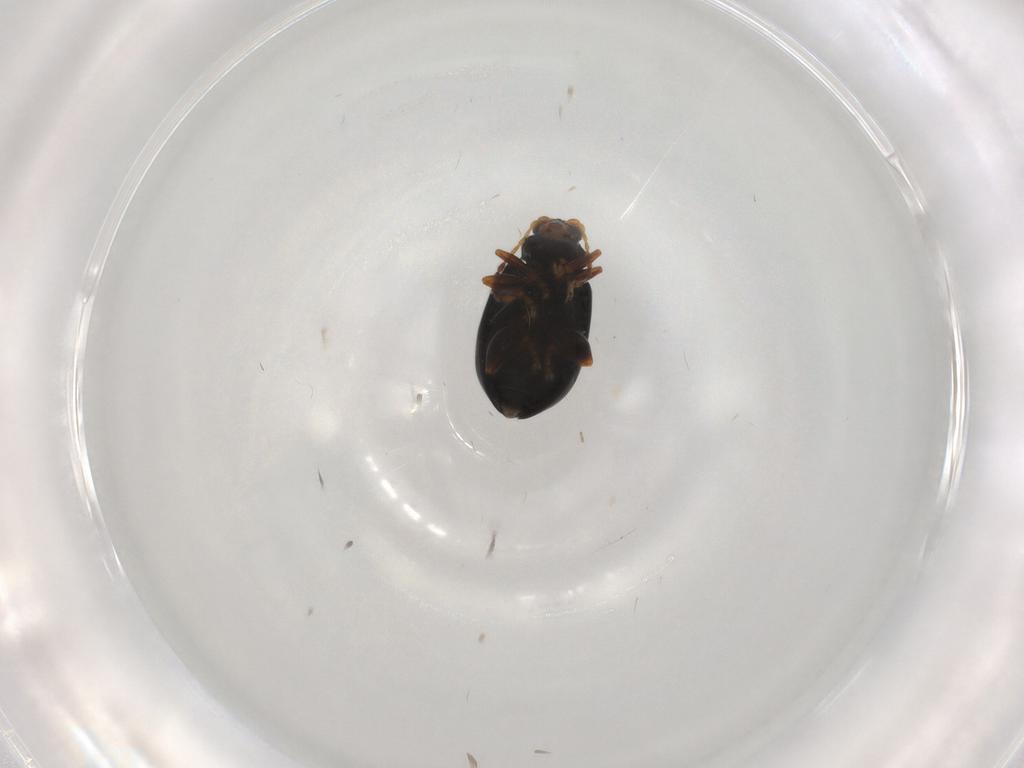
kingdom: Animalia
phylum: Arthropoda
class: Insecta
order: Coleoptera
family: Chrysomelidae
